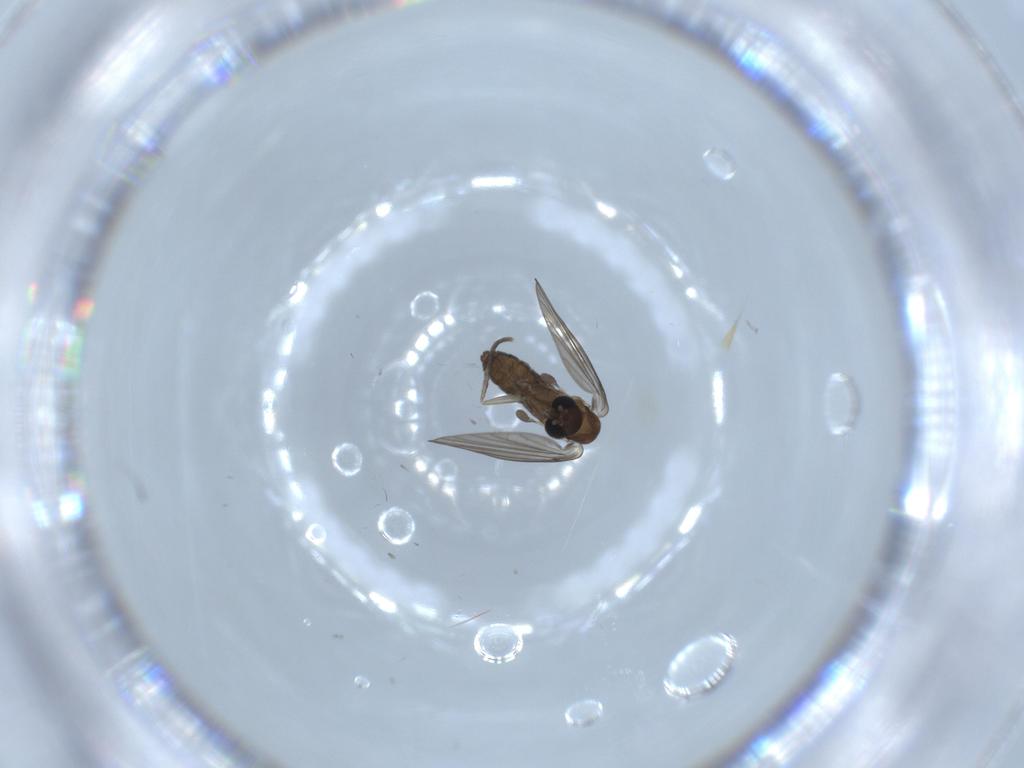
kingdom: Animalia
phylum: Arthropoda
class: Insecta
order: Diptera
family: Psychodidae
